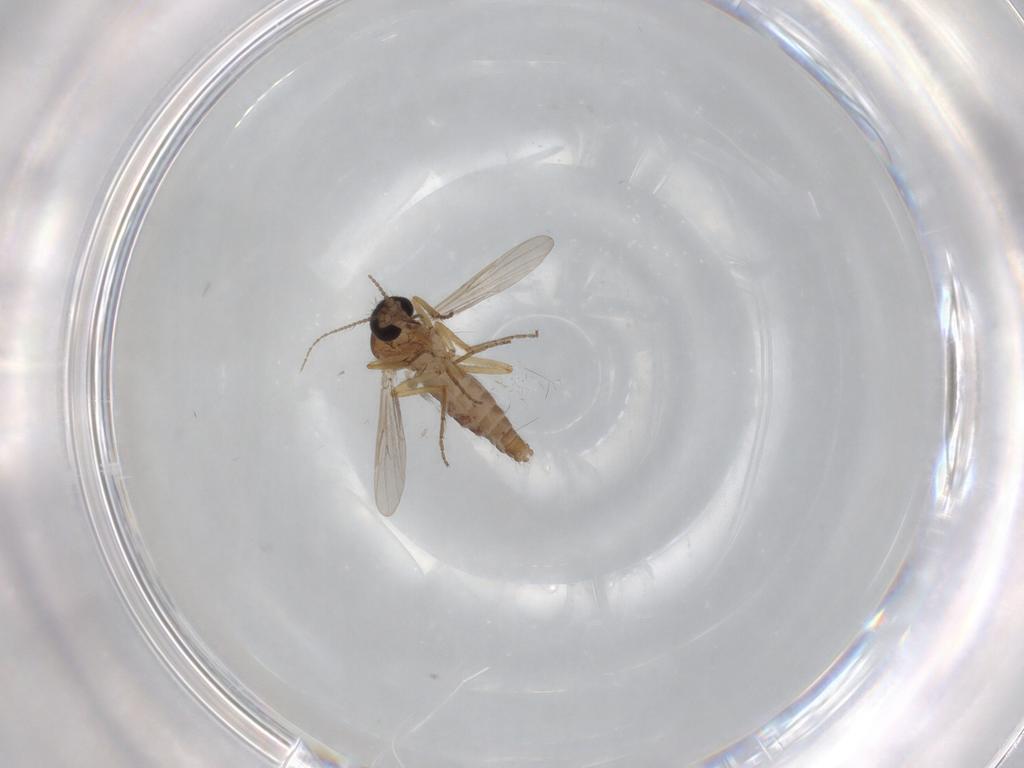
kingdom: Animalia
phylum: Arthropoda
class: Insecta
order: Diptera
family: Ceratopogonidae
